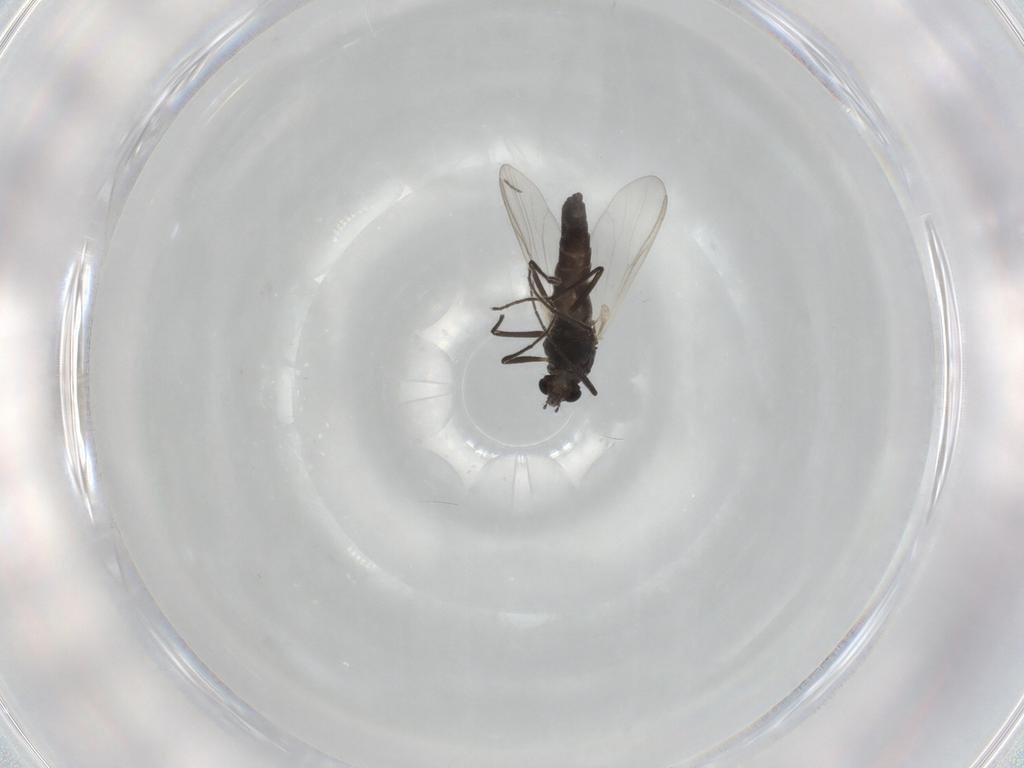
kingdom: Animalia
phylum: Arthropoda
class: Insecta
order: Diptera
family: Chironomidae
